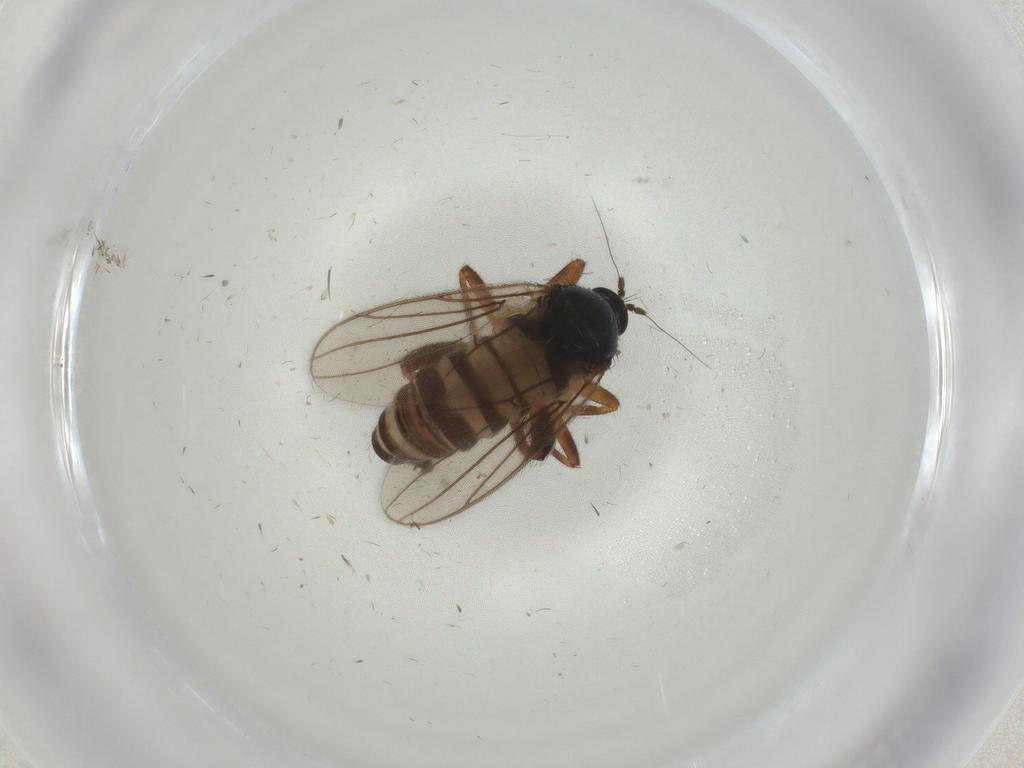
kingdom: Animalia
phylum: Arthropoda
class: Insecta
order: Diptera
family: Hybotidae
